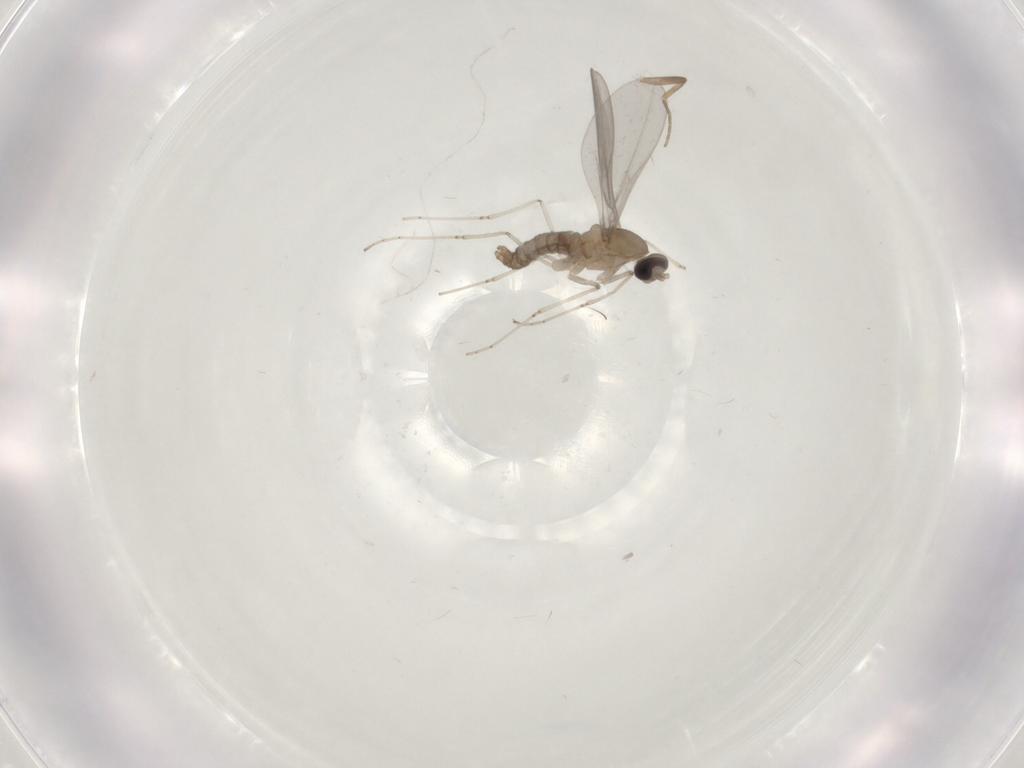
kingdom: Animalia
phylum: Arthropoda
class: Insecta
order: Diptera
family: Cecidomyiidae
